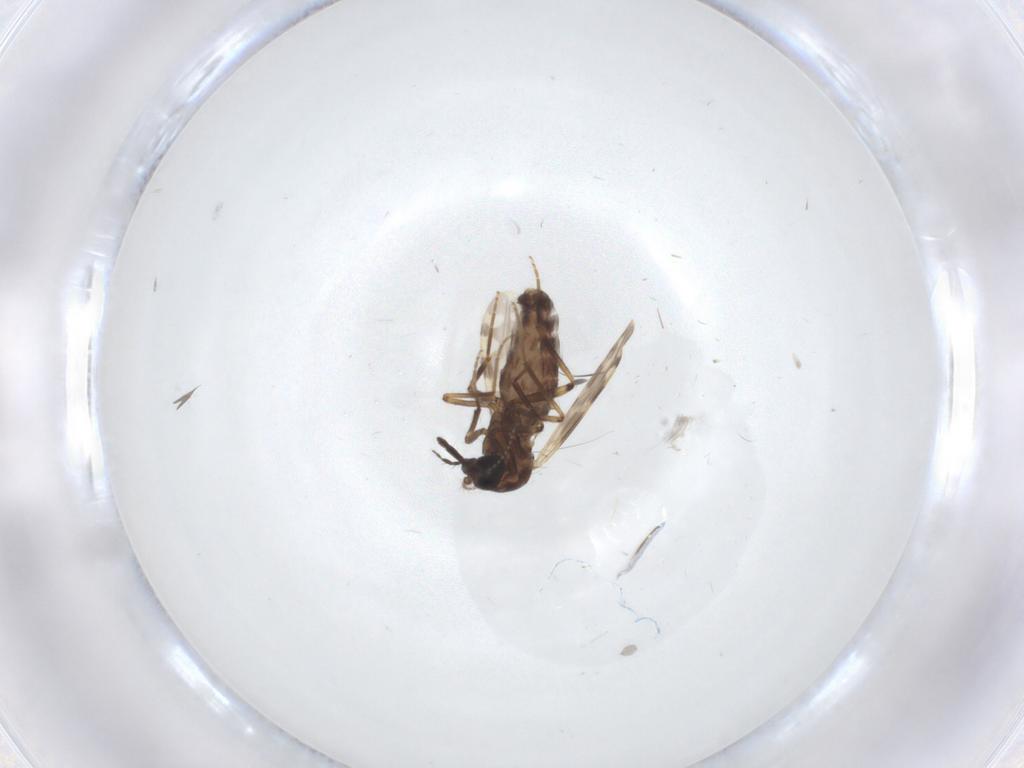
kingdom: Animalia
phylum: Arthropoda
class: Insecta
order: Diptera
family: Ceratopogonidae
